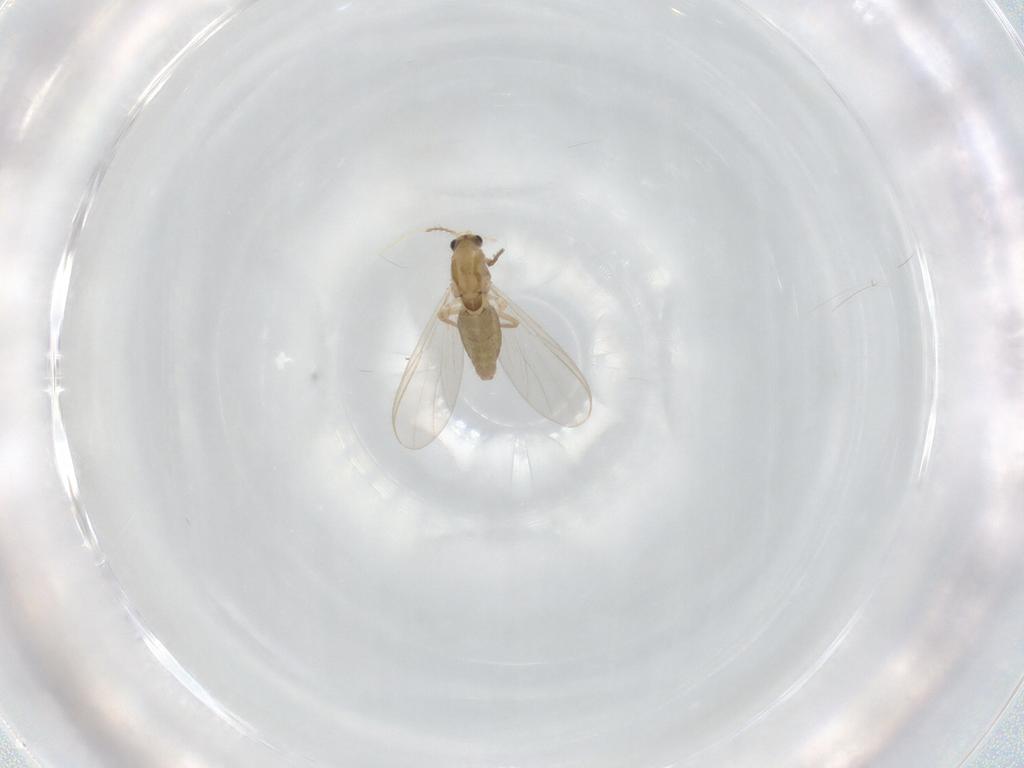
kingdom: Animalia
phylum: Arthropoda
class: Insecta
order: Diptera
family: Chironomidae
